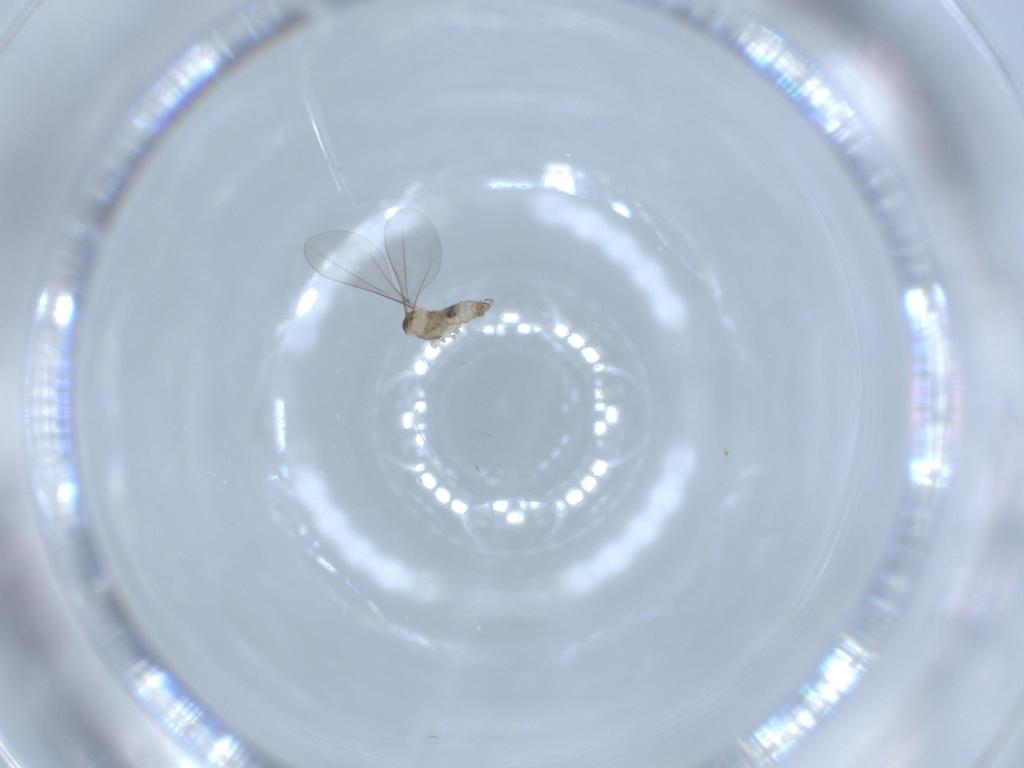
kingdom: Animalia
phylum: Arthropoda
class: Insecta
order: Diptera
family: Cecidomyiidae
